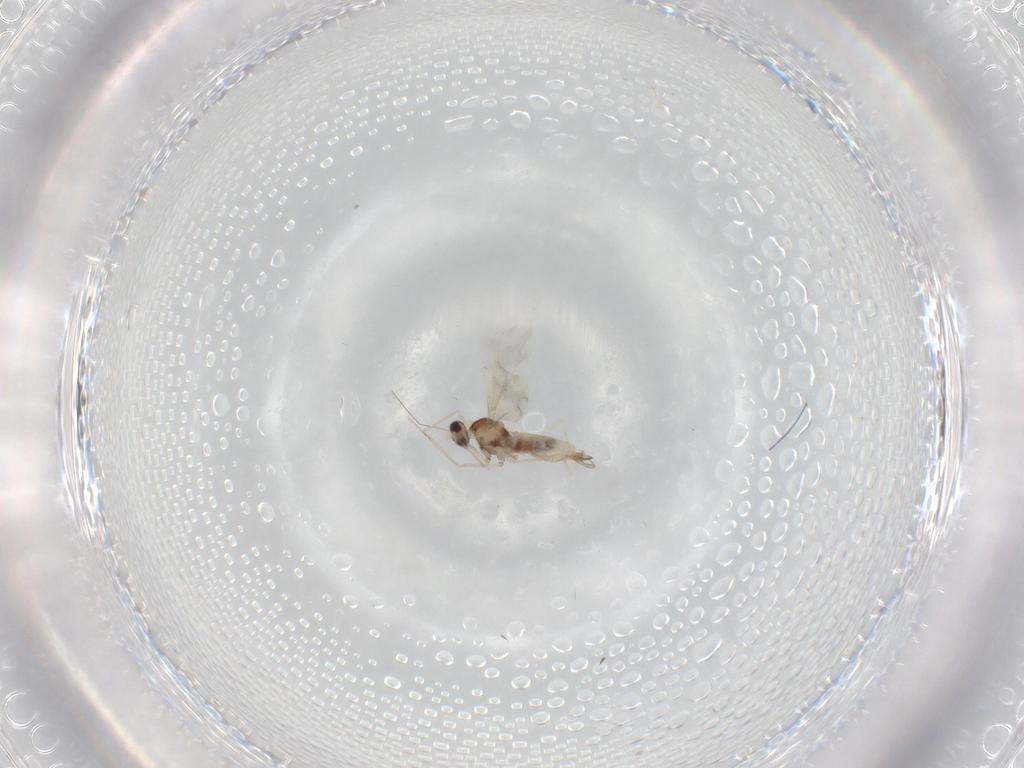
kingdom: Animalia
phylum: Arthropoda
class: Insecta
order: Diptera
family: Cecidomyiidae
